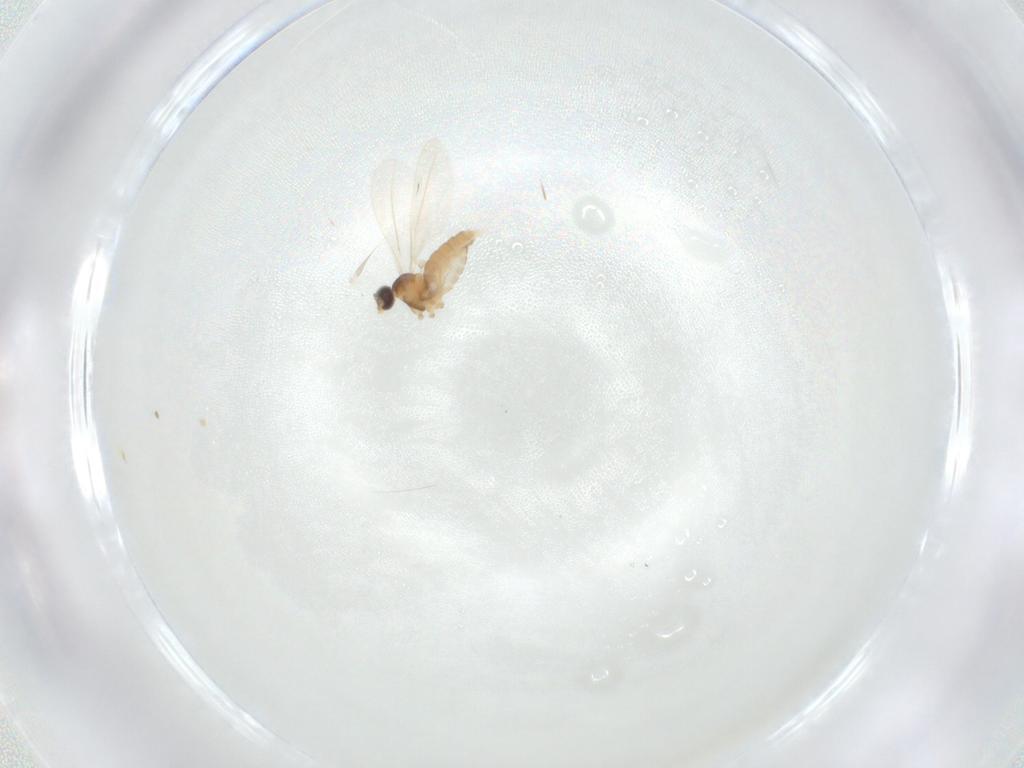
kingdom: Animalia
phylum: Arthropoda
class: Insecta
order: Diptera
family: Cecidomyiidae
